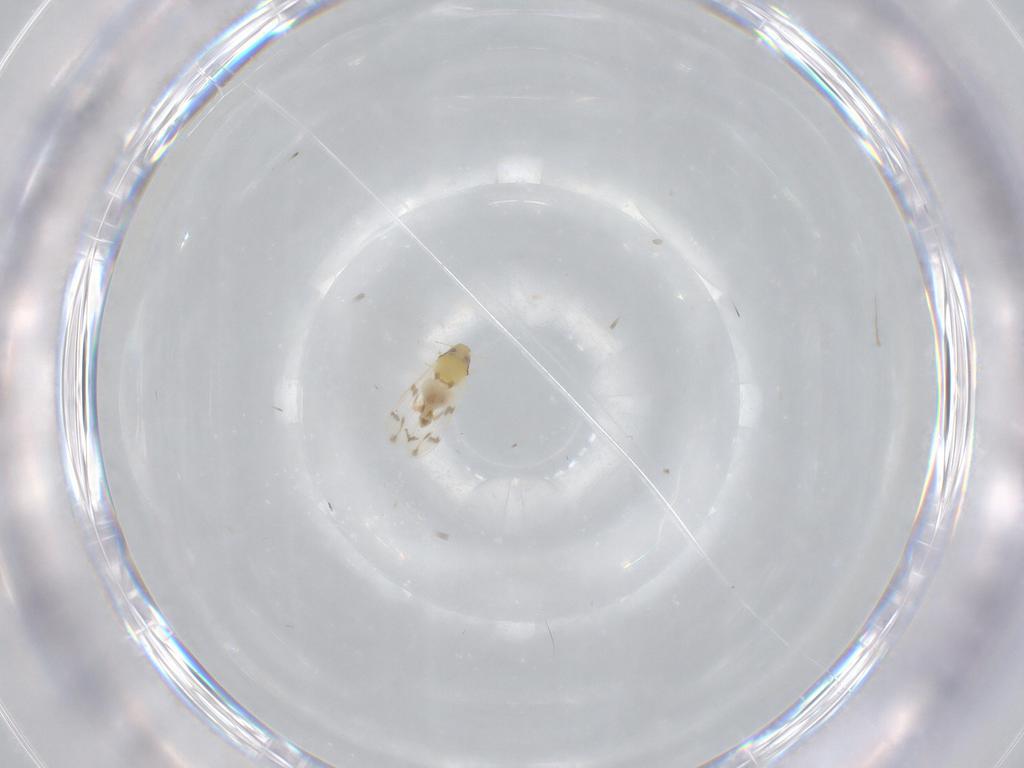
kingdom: Animalia
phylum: Arthropoda
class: Insecta
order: Hemiptera
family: Aleyrodidae
